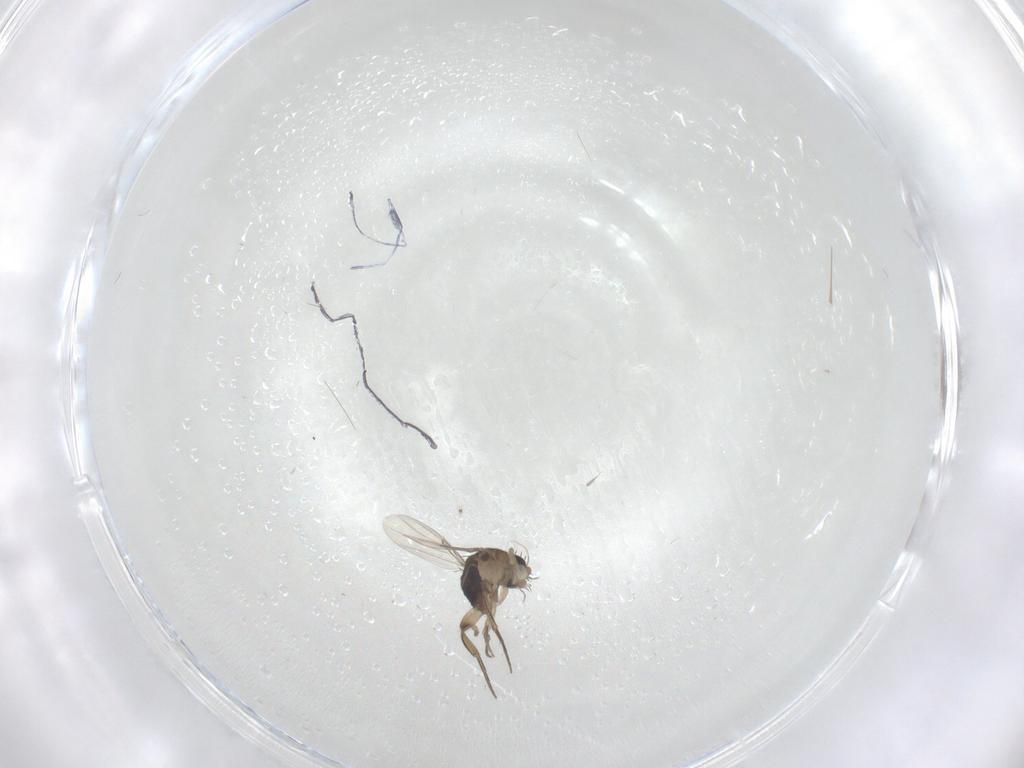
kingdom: Animalia
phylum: Arthropoda
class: Insecta
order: Diptera
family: Phoridae
